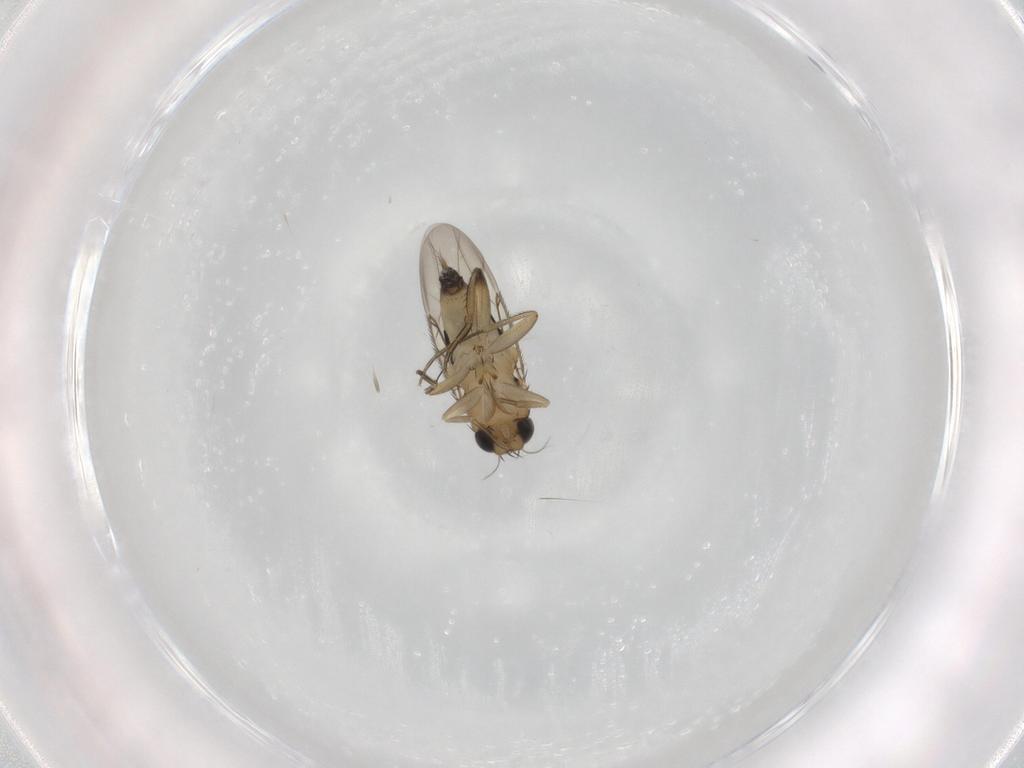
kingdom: Animalia
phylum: Arthropoda
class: Insecta
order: Diptera
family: Phoridae
